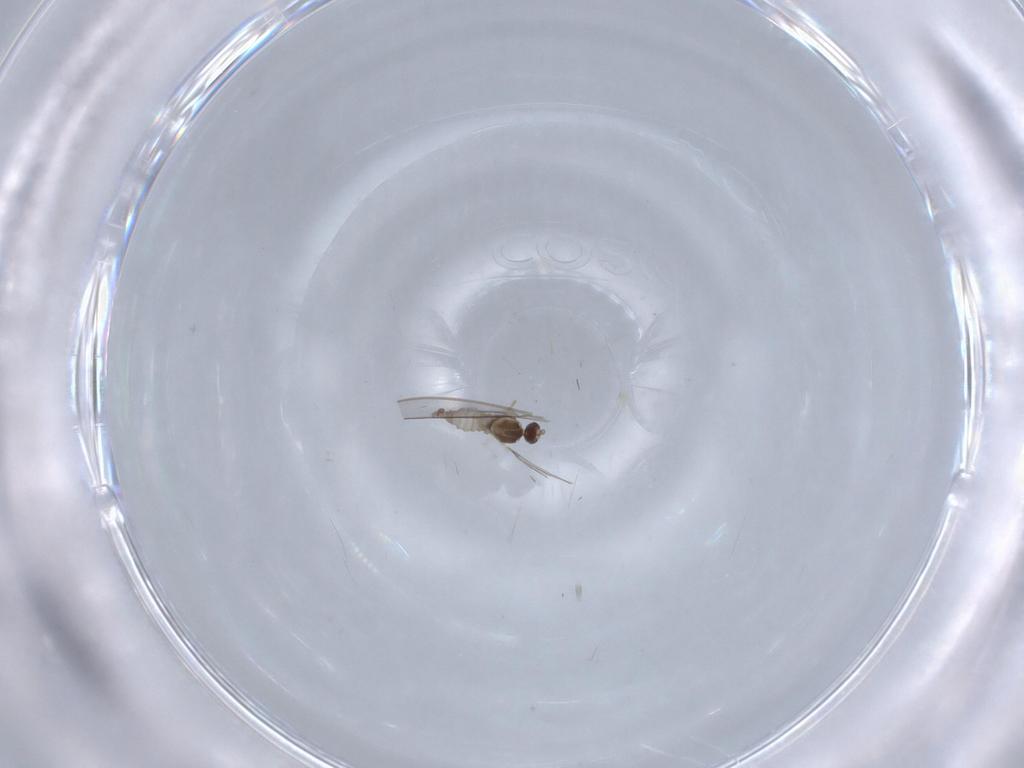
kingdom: Animalia
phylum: Arthropoda
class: Insecta
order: Diptera
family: Cecidomyiidae
